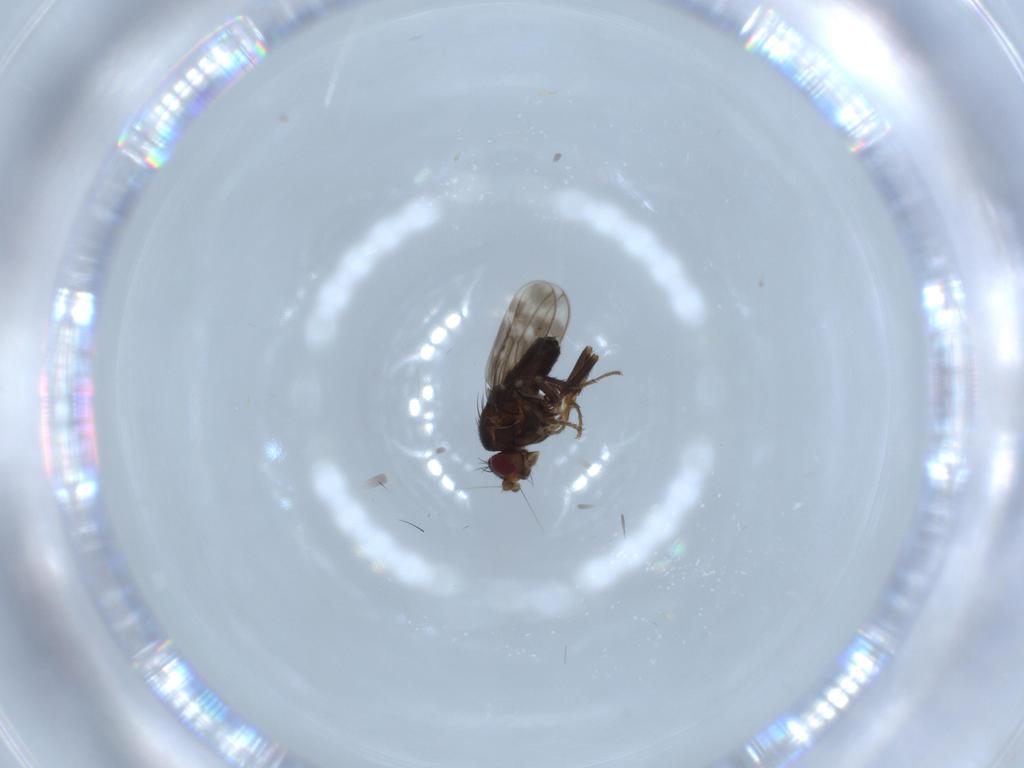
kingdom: Animalia
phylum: Arthropoda
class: Insecta
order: Diptera
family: Sphaeroceridae
